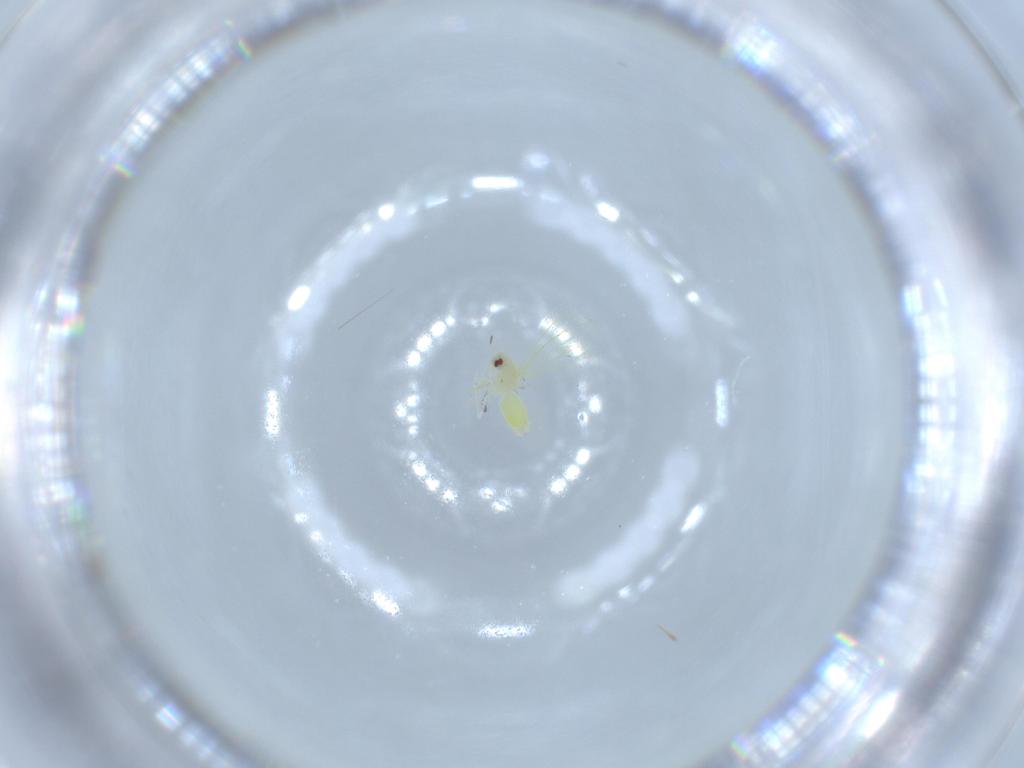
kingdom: Animalia
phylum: Arthropoda
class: Insecta
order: Hemiptera
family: Aleyrodidae
